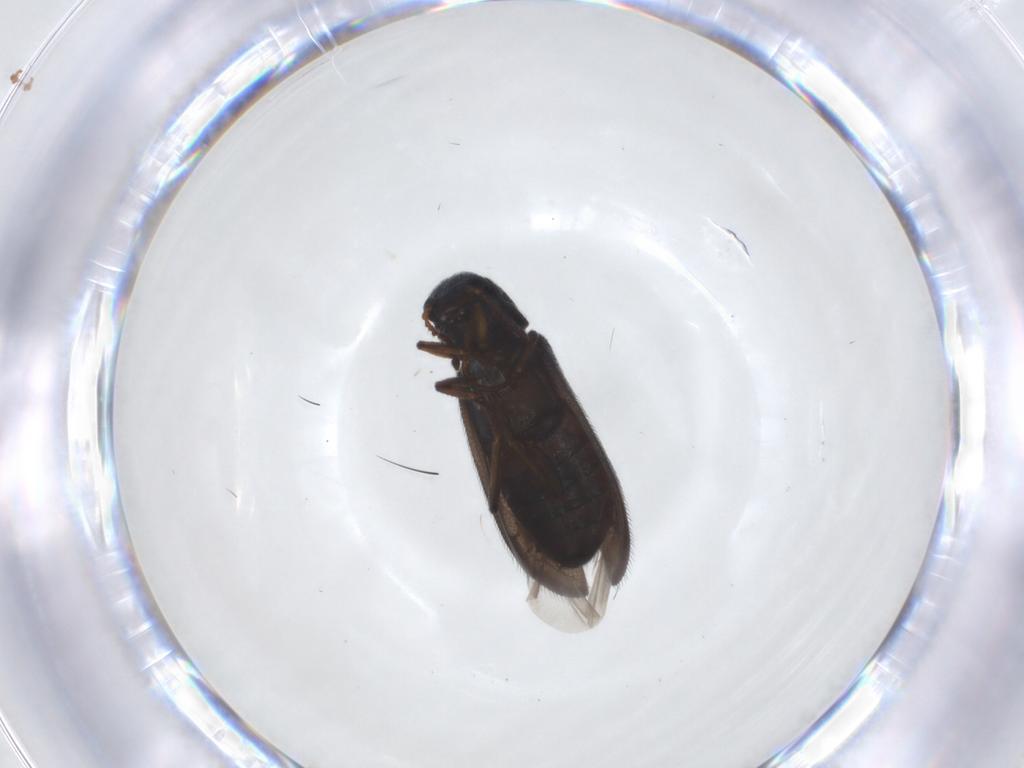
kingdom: Animalia
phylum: Arthropoda
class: Insecta
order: Coleoptera
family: Melyridae
